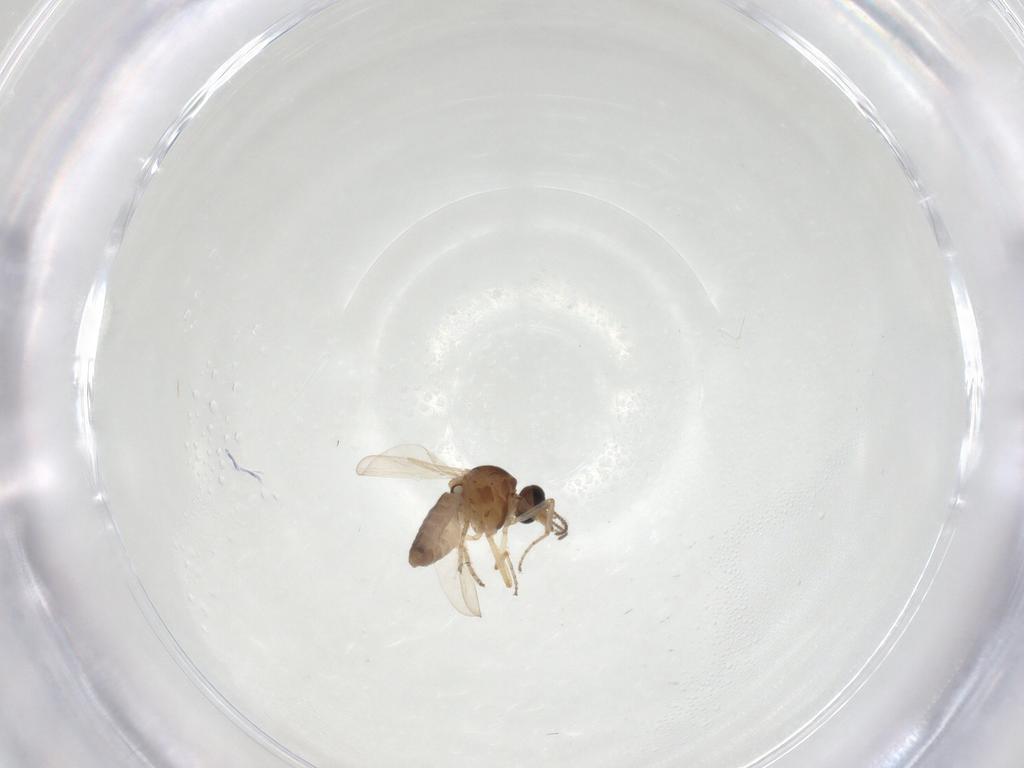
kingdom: Animalia
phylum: Arthropoda
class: Insecta
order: Diptera
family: Ceratopogonidae
